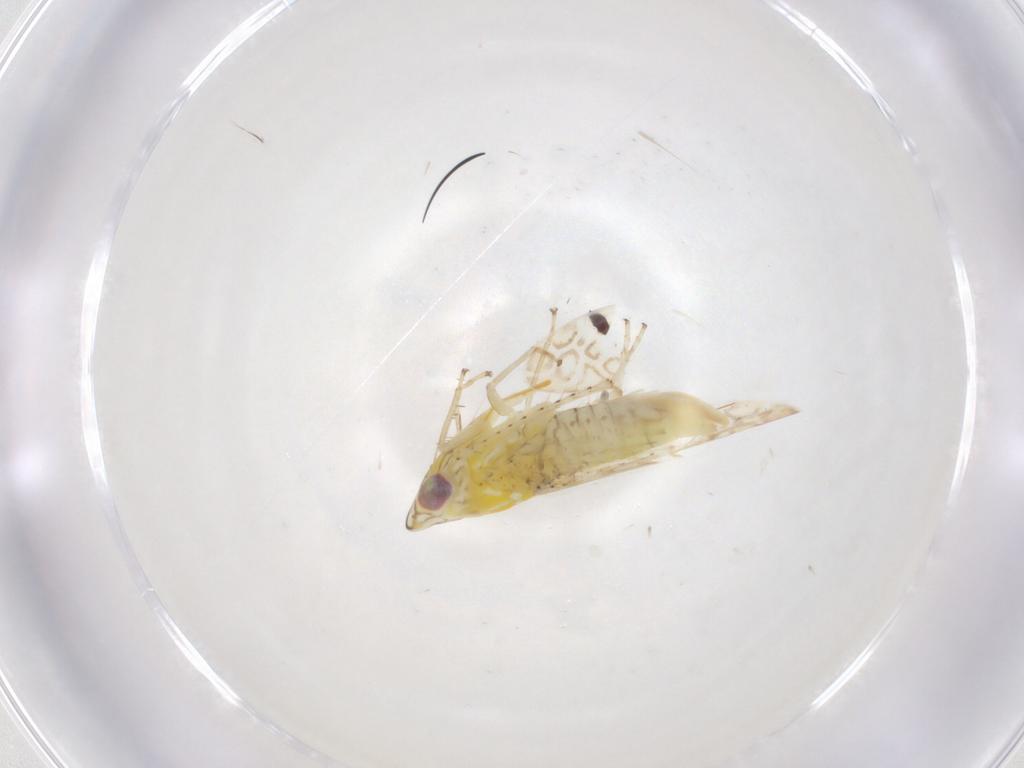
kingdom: Animalia
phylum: Arthropoda
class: Insecta
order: Hemiptera
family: Cicadellidae
